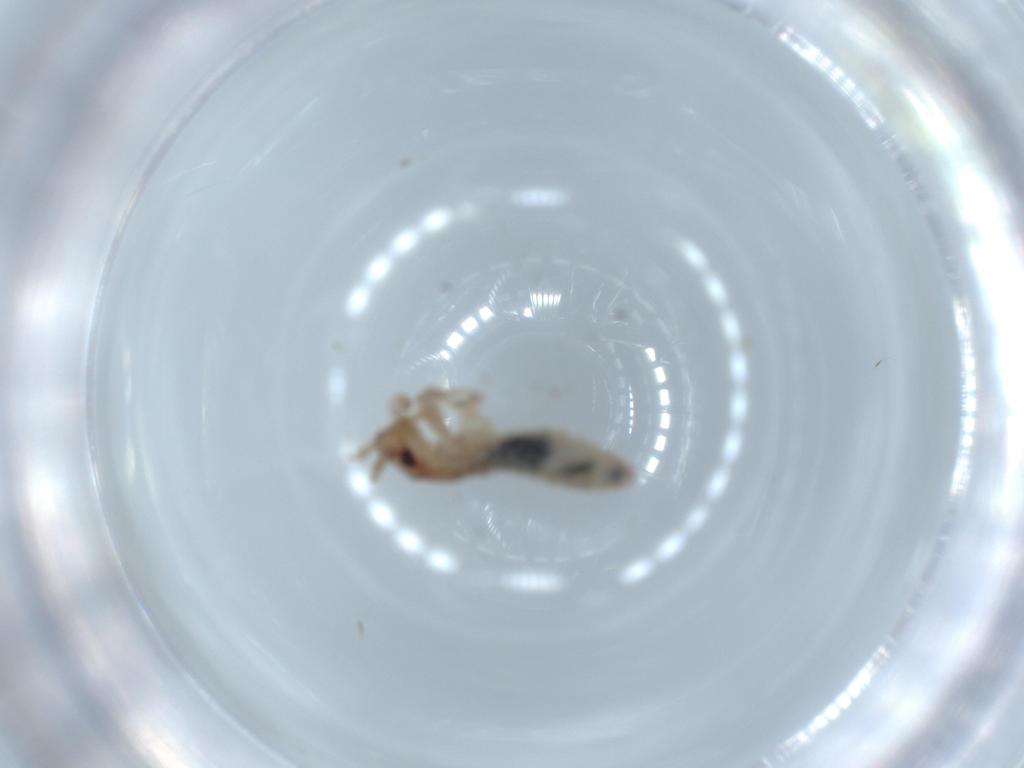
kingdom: Animalia
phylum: Arthropoda
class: Insecta
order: Orthoptera
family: Mogoplistidae
